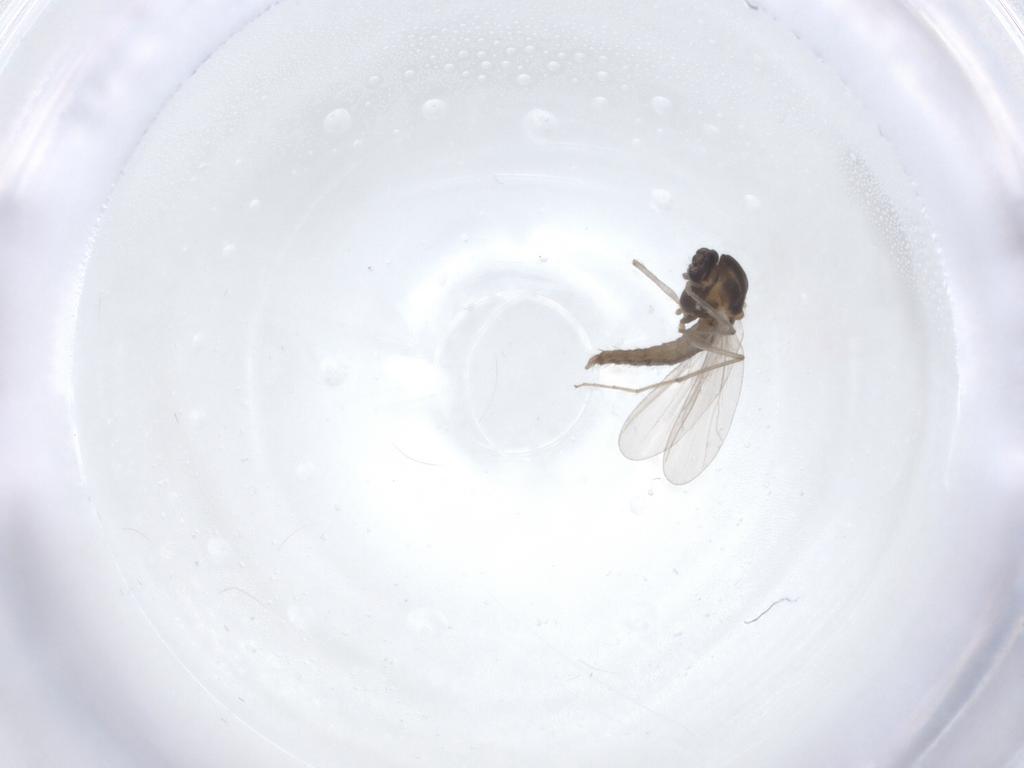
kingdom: Animalia
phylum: Arthropoda
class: Insecta
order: Diptera
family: Chironomidae
